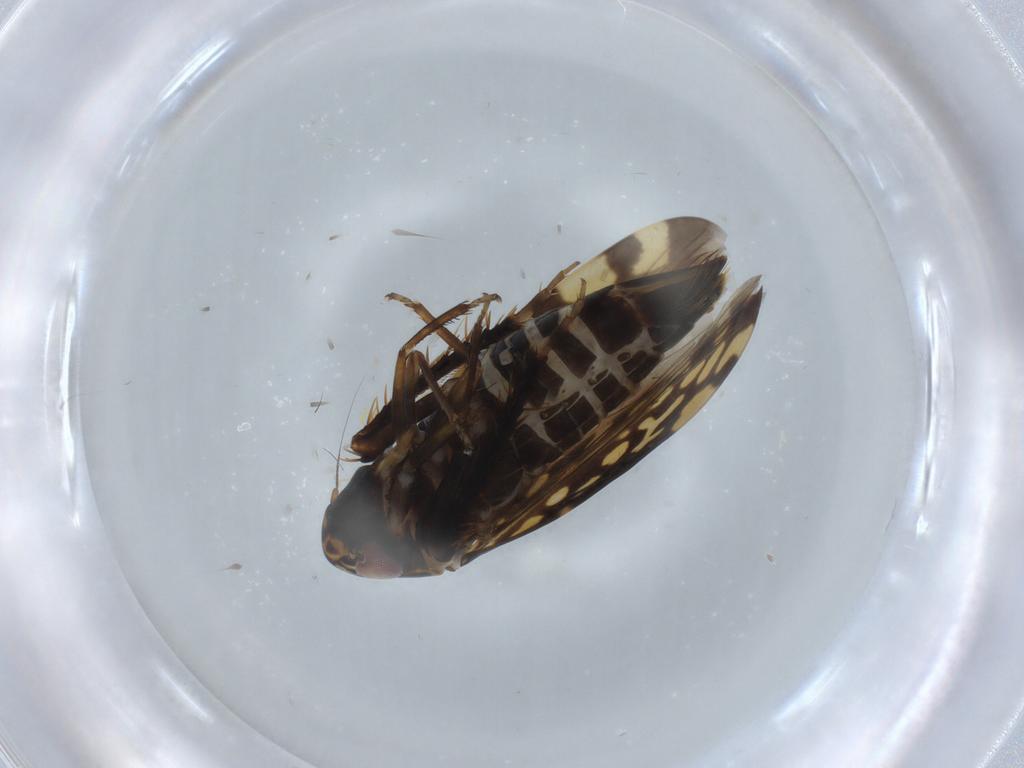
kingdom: Animalia
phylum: Arthropoda
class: Insecta
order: Hemiptera
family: Cicadellidae
